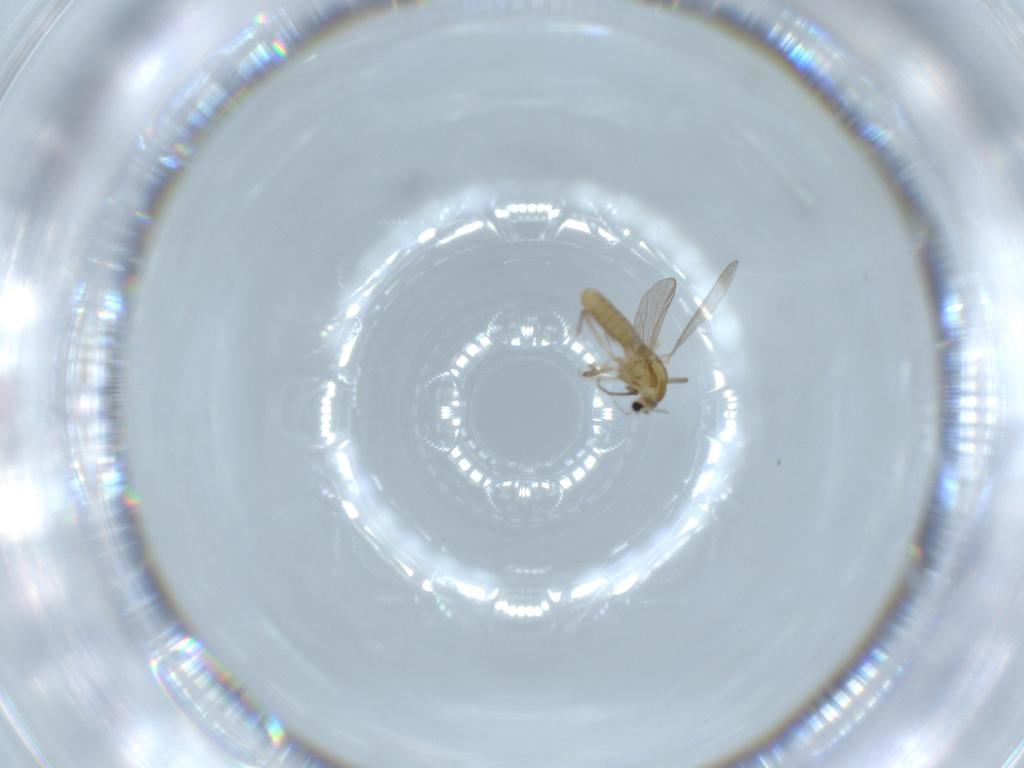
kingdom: Animalia
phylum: Arthropoda
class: Insecta
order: Diptera
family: Chironomidae
